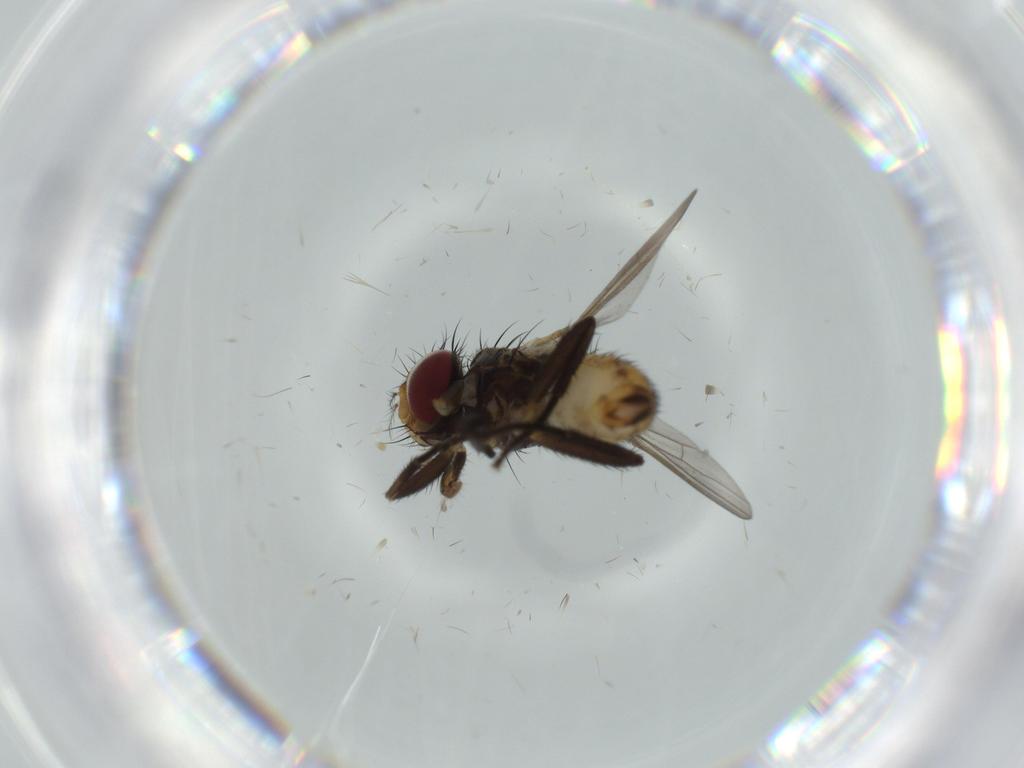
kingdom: Animalia
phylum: Arthropoda
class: Insecta
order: Diptera
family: Anthomyiidae
